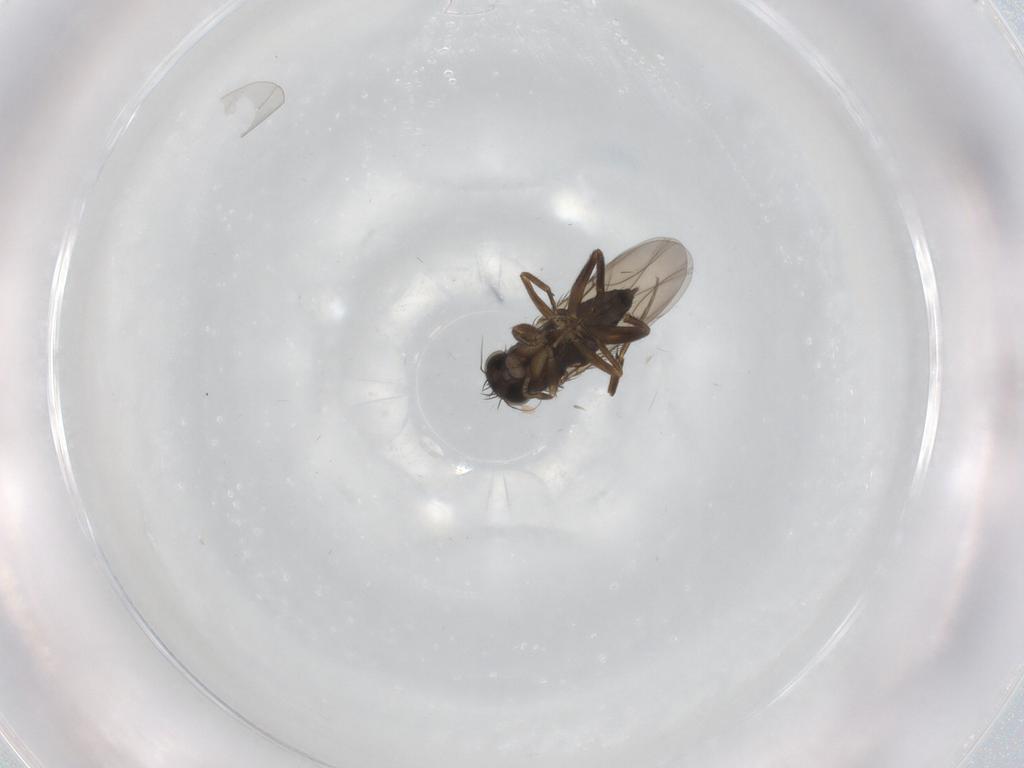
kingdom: Animalia
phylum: Arthropoda
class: Insecta
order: Diptera
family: Phoridae
